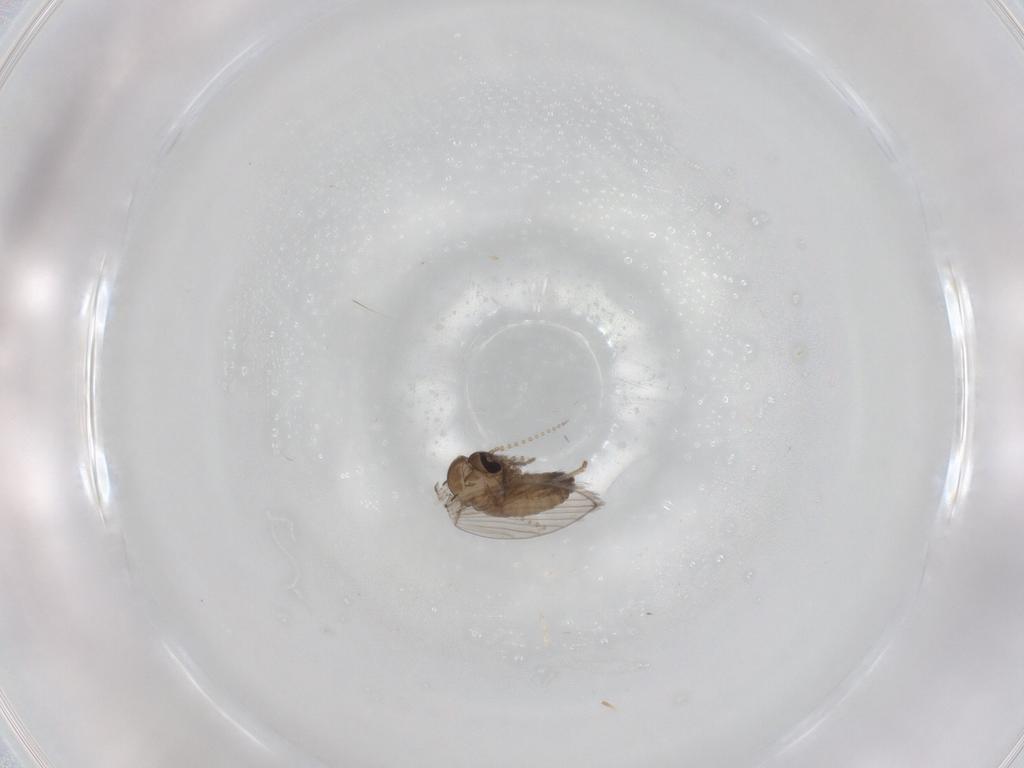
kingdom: Animalia
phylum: Arthropoda
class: Insecta
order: Diptera
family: Psychodidae
